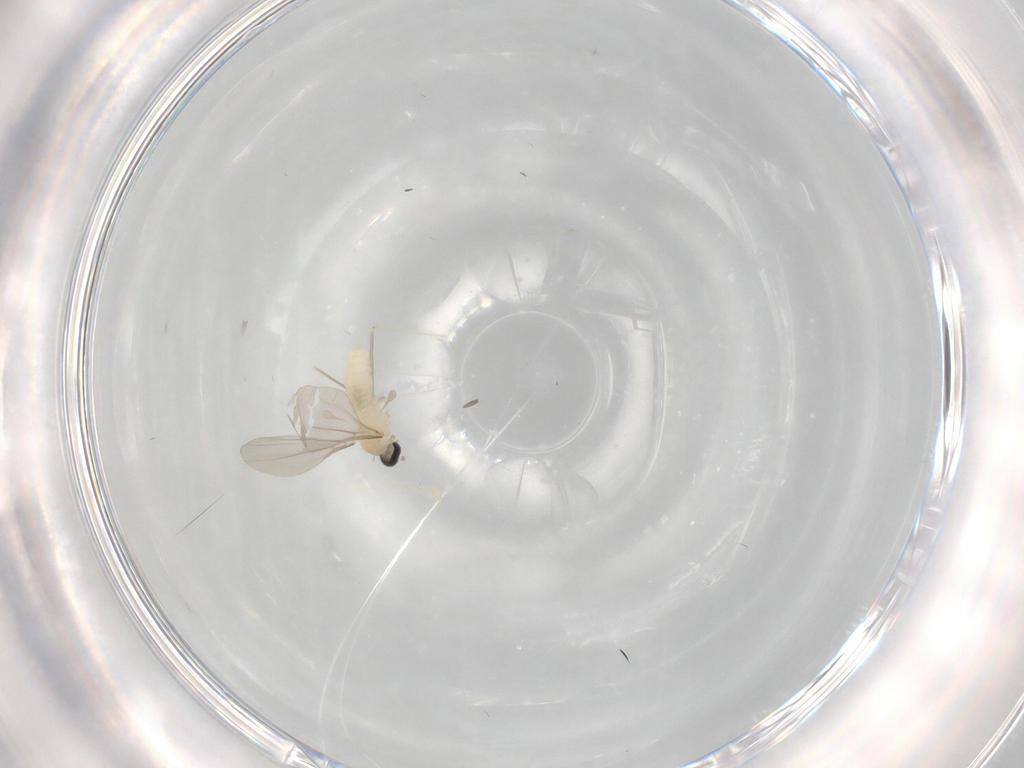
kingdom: Animalia
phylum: Arthropoda
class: Insecta
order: Diptera
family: Cecidomyiidae
